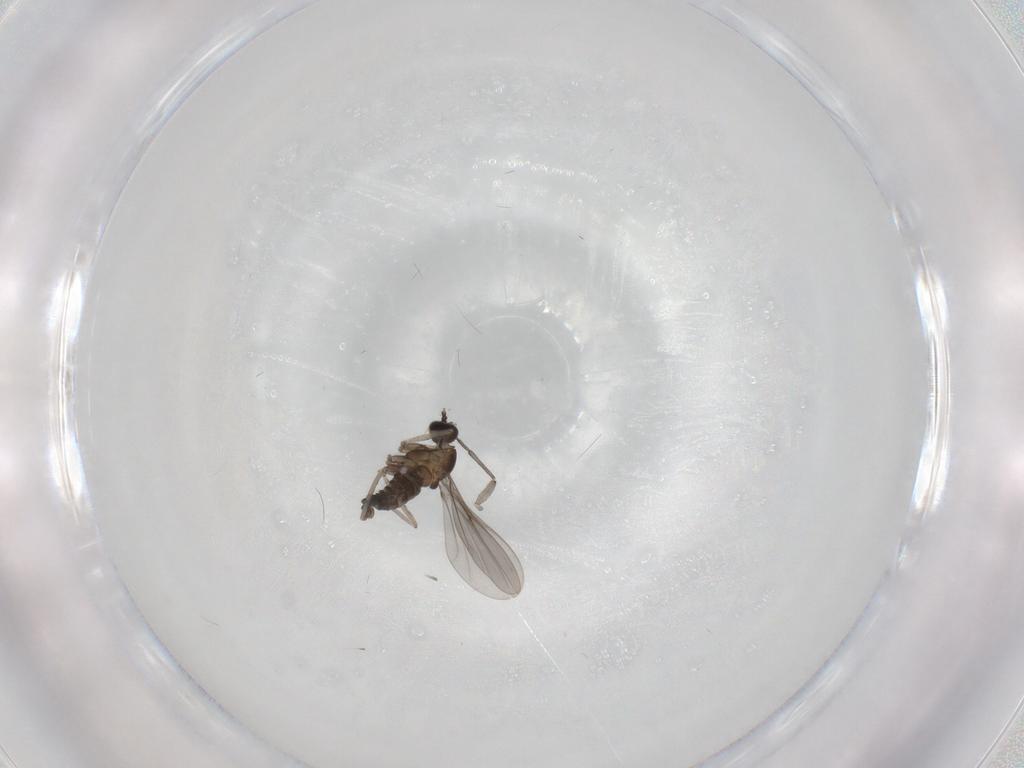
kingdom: Animalia
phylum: Arthropoda
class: Insecta
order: Diptera
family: Sciaridae
